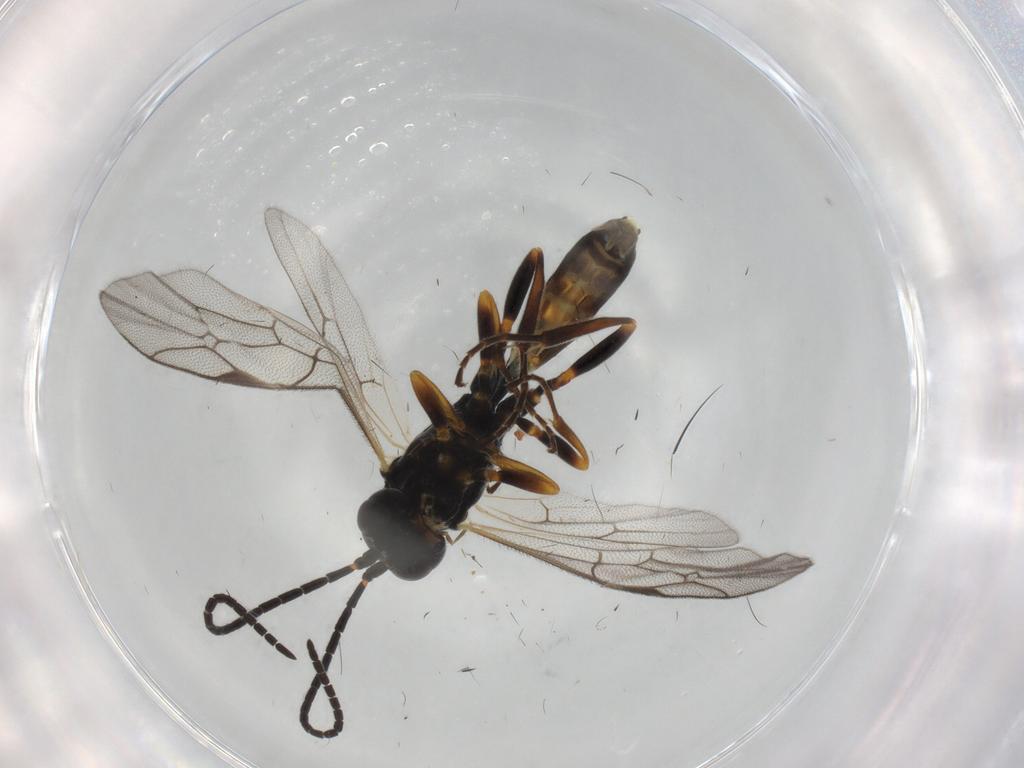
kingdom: Animalia
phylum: Arthropoda
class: Insecta
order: Hymenoptera
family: Ichneumonidae
